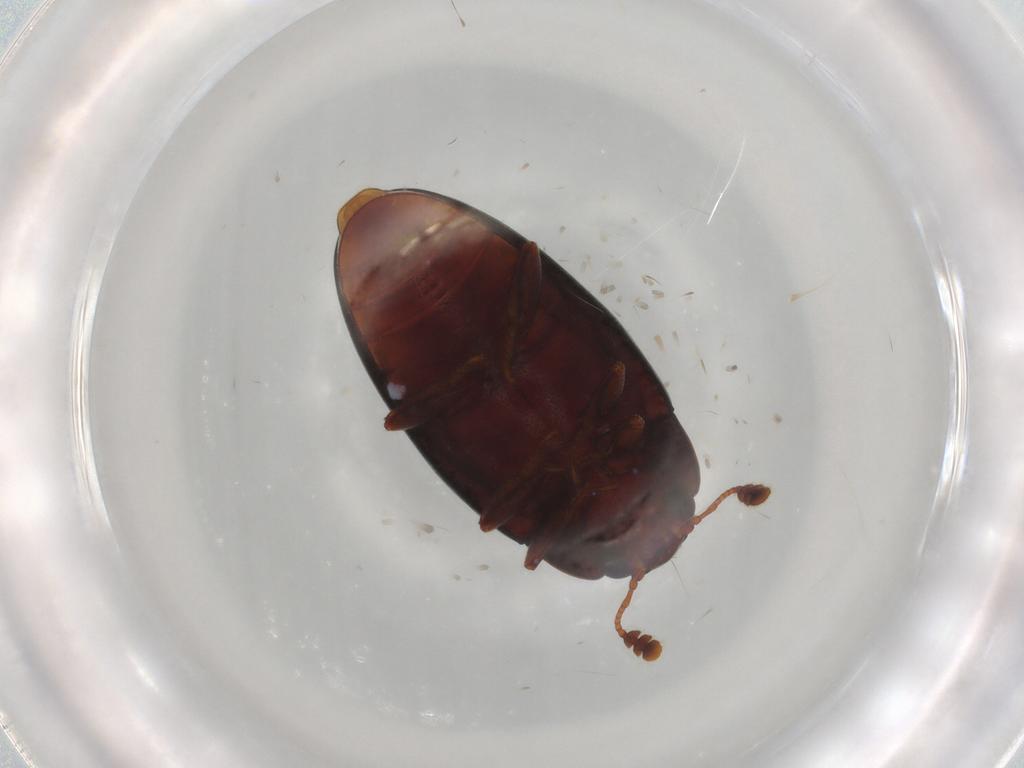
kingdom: Animalia
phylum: Arthropoda
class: Insecta
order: Coleoptera
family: Erotylidae
